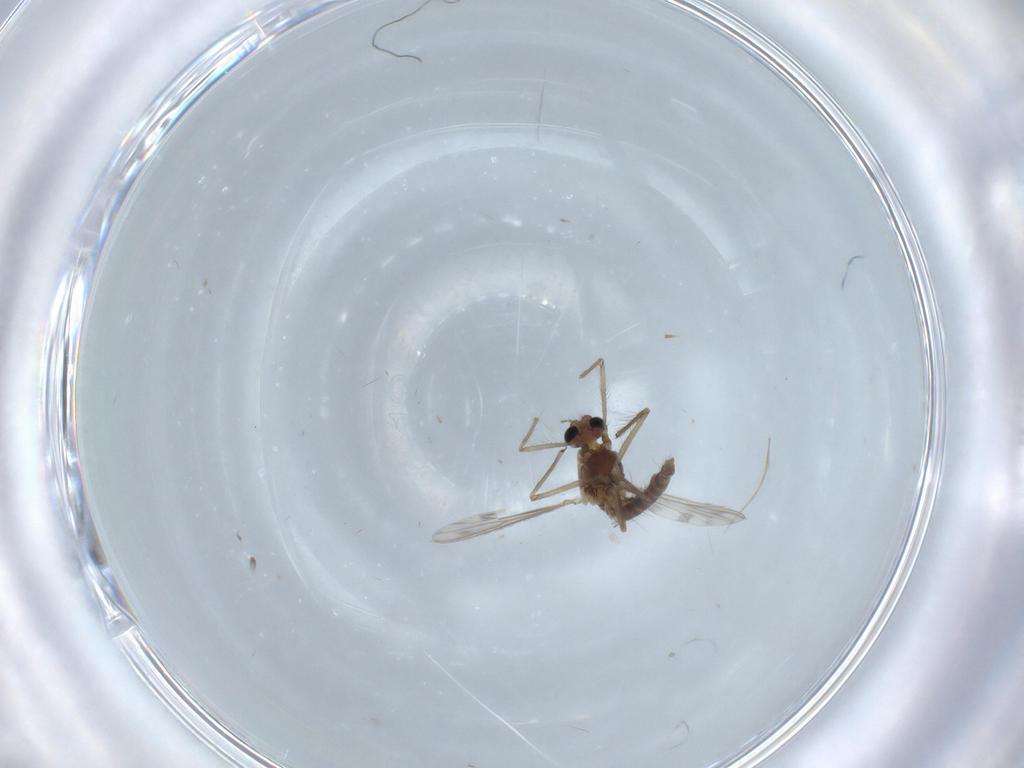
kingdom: Animalia
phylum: Arthropoda
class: Insecta
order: Diptera
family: Chironomidae
